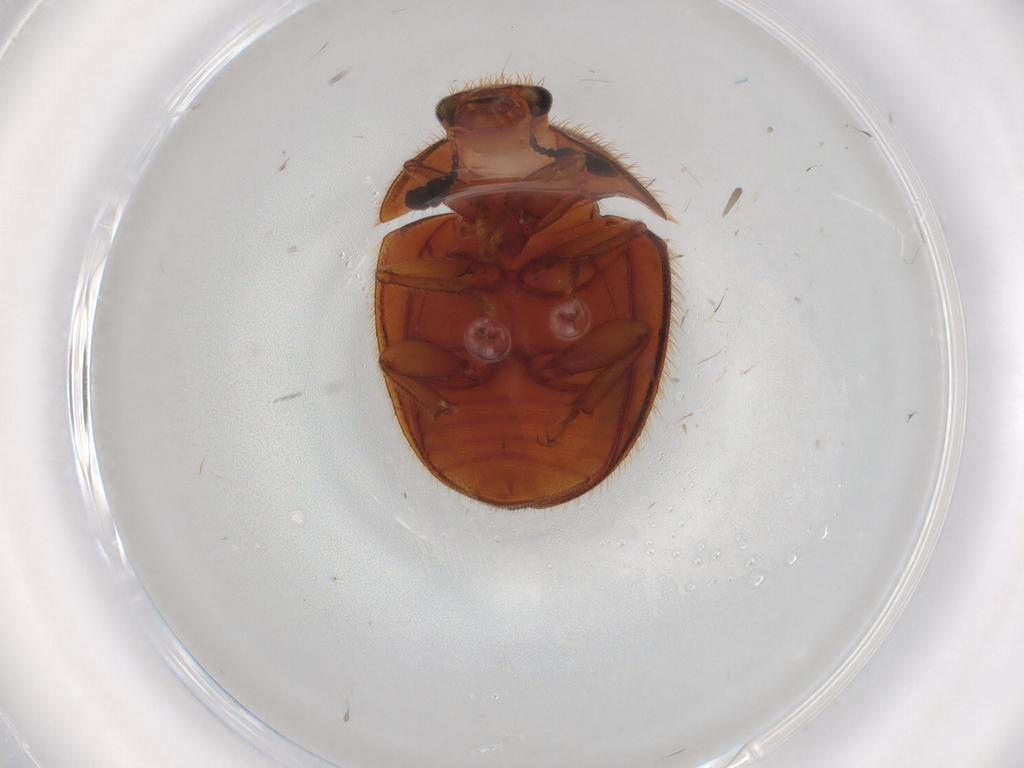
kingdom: Animalia
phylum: Arthropoda
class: Insecta
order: Coleoptera
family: Nitidulidae
